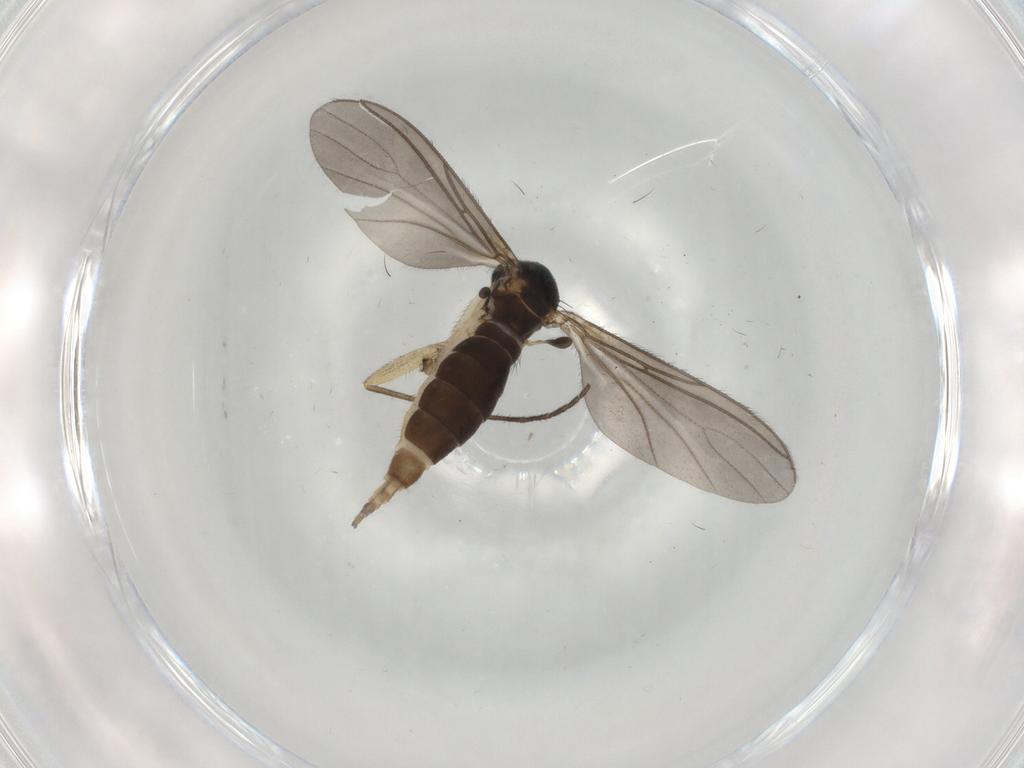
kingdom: Animalia
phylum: Arthropoda
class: Insecta
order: Diptera
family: Sciaridae
